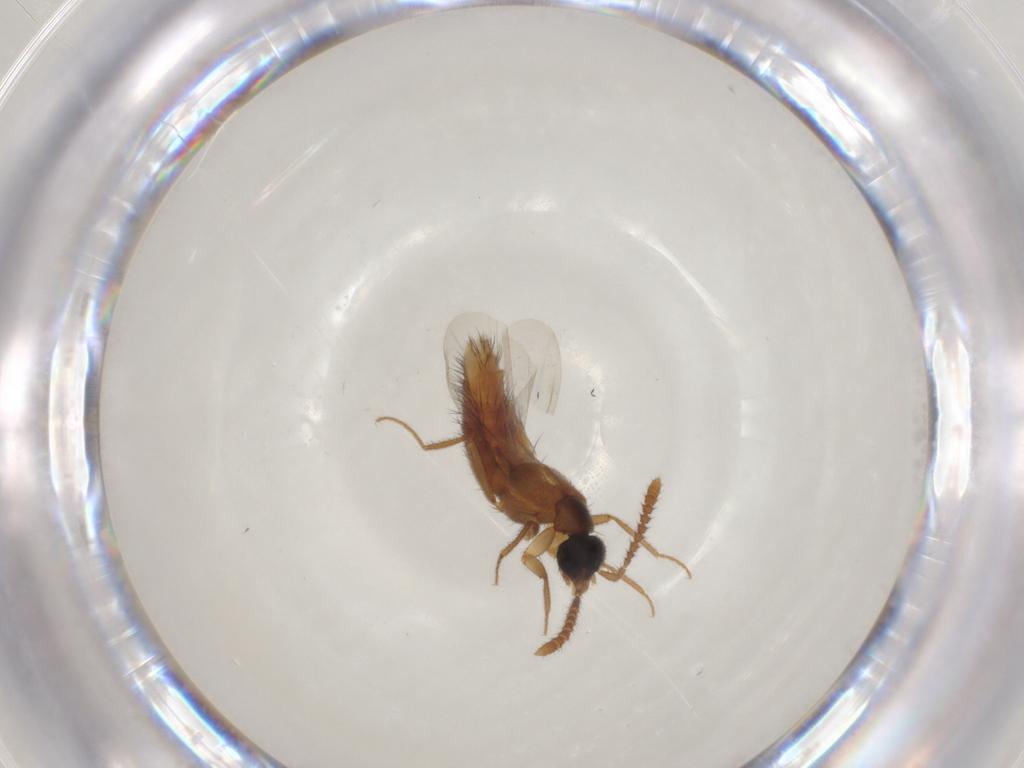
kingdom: Animalia
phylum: Arthropoda
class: Insecta
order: Coleoptera
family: Staphylinidae
